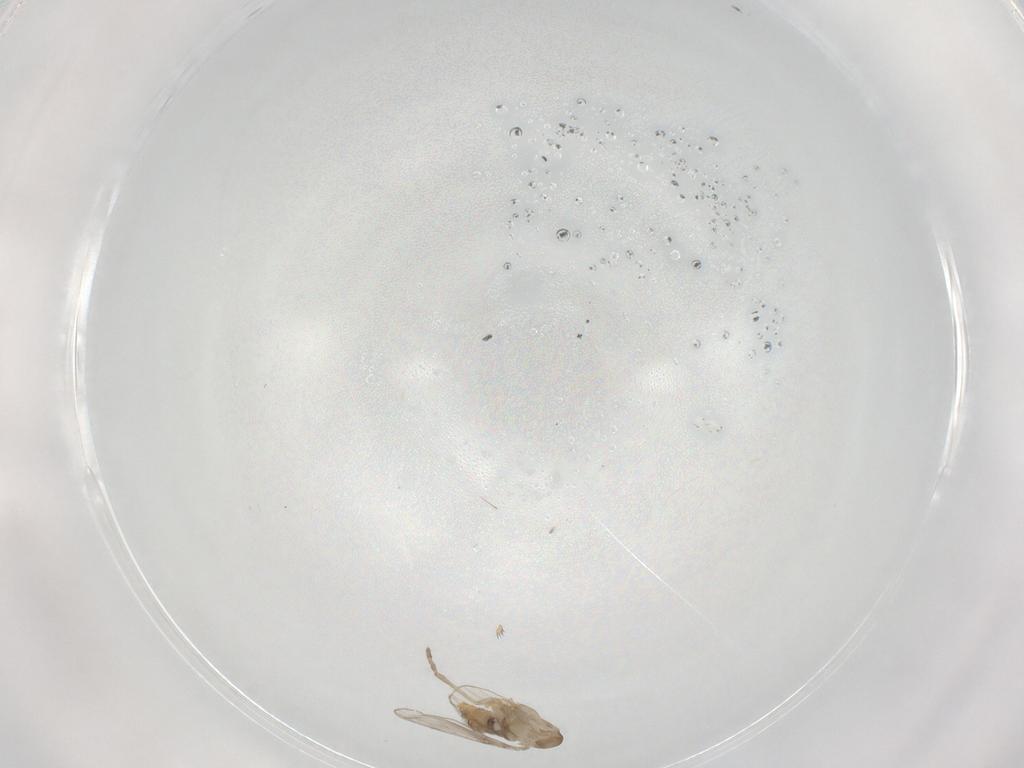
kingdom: Animalia
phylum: Arthropoda
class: Insecta
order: Diptera
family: Psychodidae
